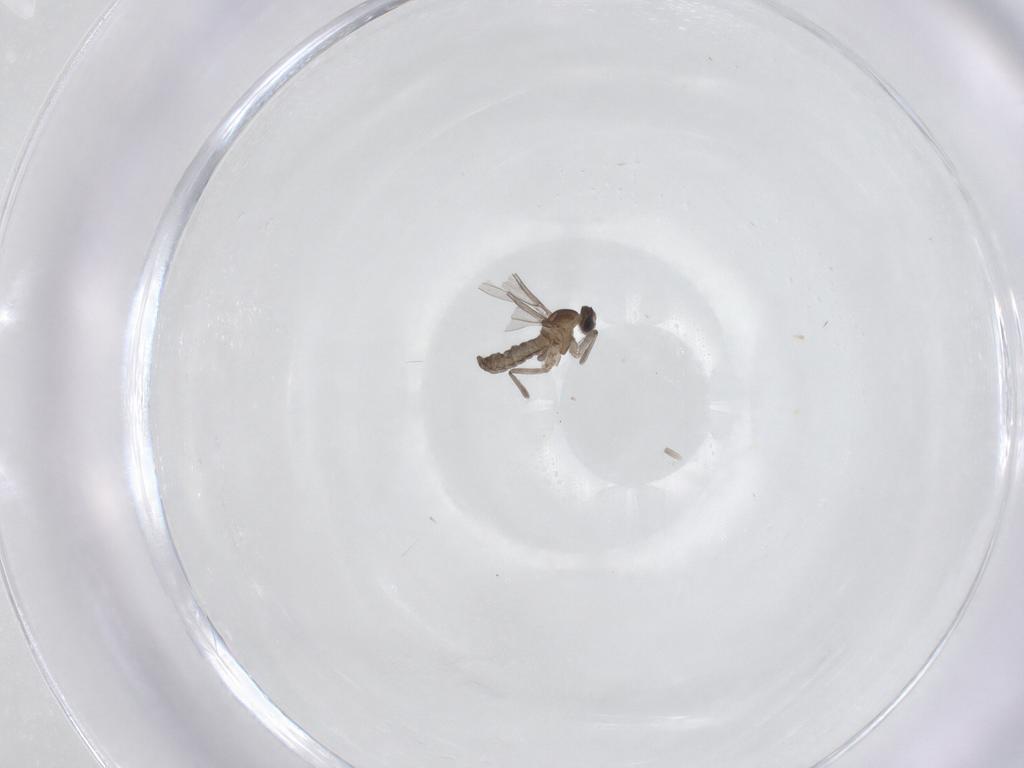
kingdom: Animalia
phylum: Arthropoda
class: Insecta
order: Diptera
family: Cecidomyiidae
